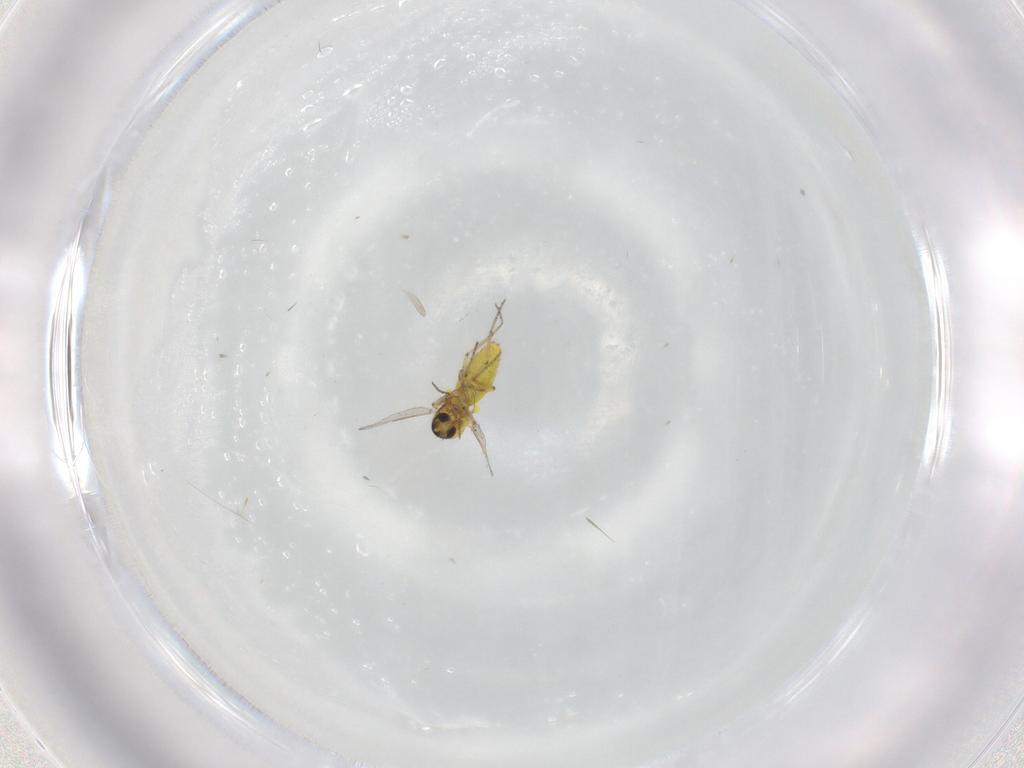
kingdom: Animalia
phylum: Arthropoda
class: Insecta
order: Diptera
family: Ceratopogonidae
